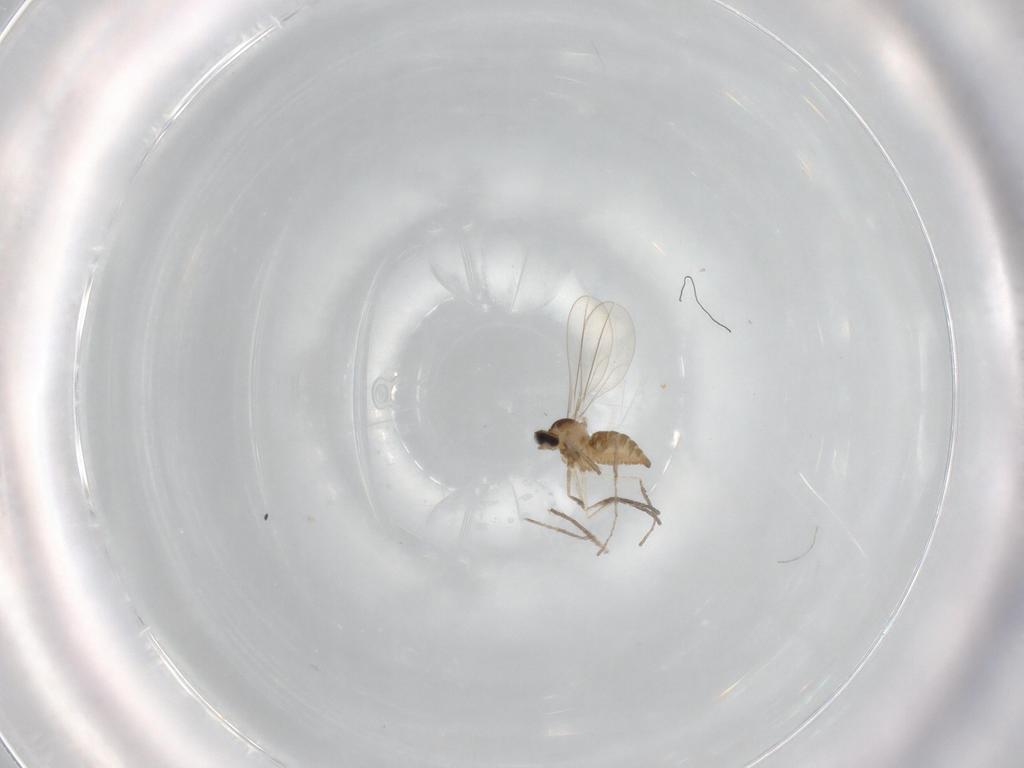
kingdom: Animalia
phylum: Arthropoda
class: Insecta
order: Diptera
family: Cecidomyiidae
